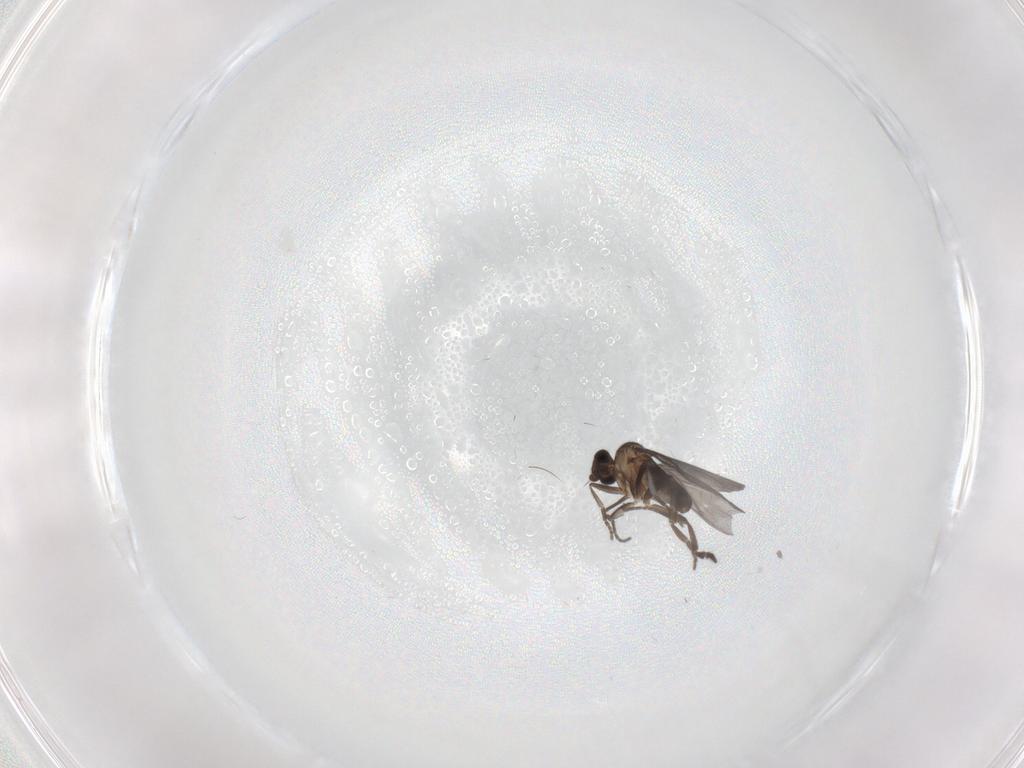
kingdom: Animalia
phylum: Arthropoda
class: Insecta
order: Diptera
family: Phoridae
